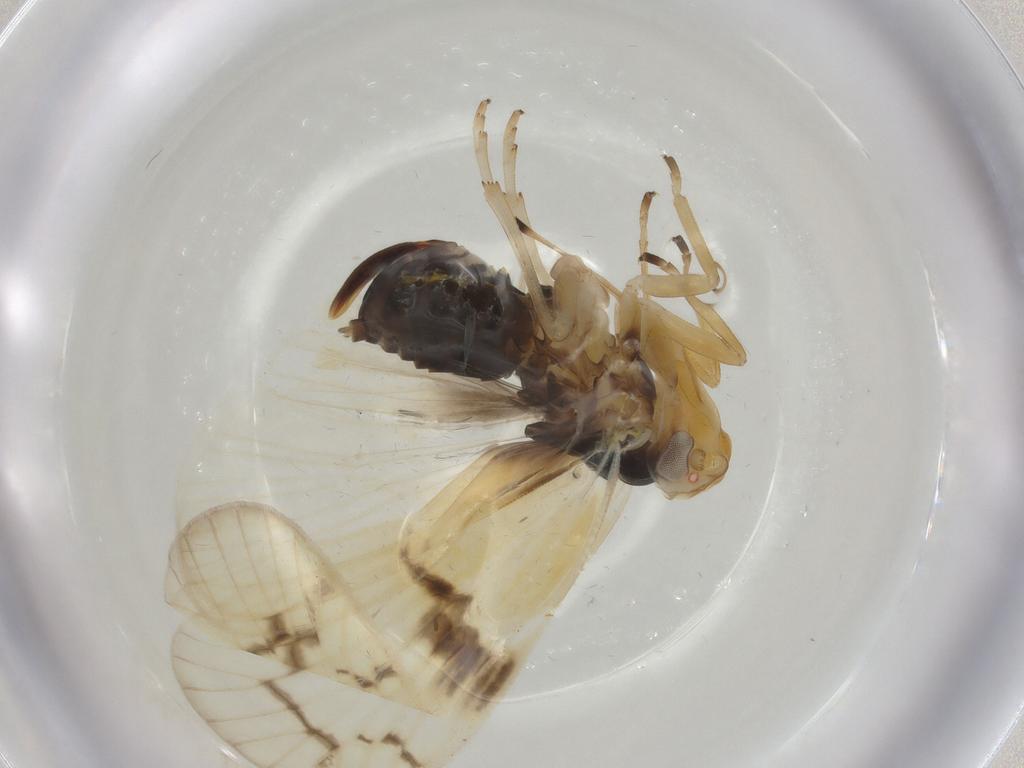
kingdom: Animalia
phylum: Arthropoda
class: Insecta
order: Hemiptera
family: Cixiidae
